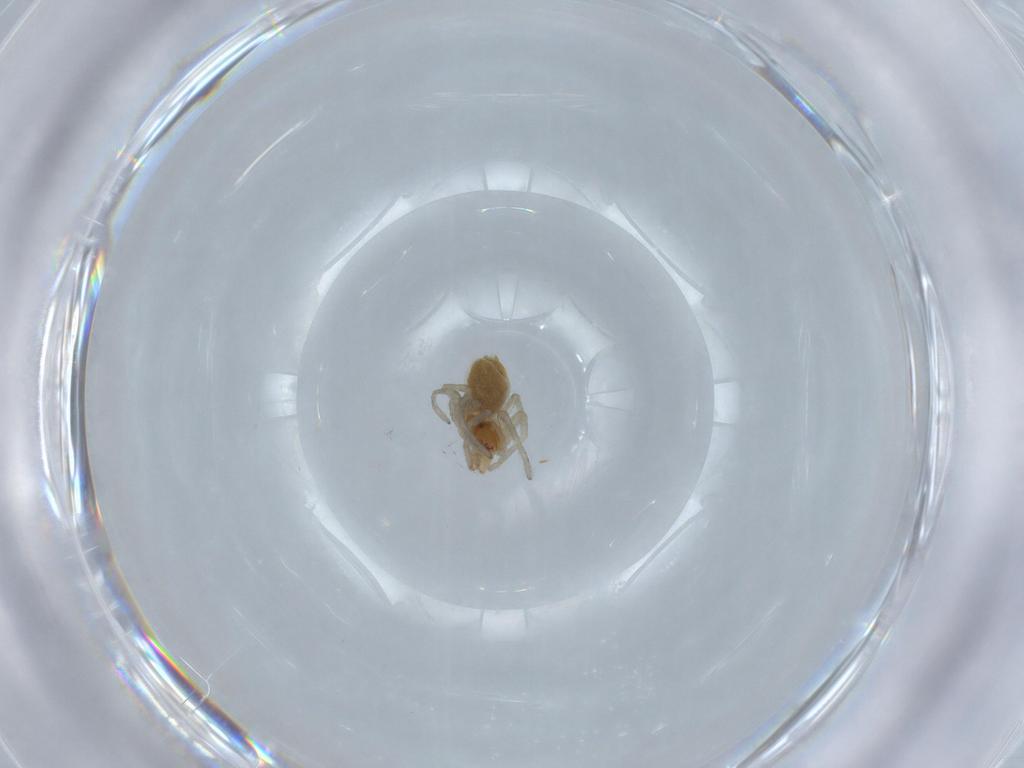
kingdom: Animalia
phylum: Arthropoda
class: Arachnida
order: Araneae
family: Dictynidae
